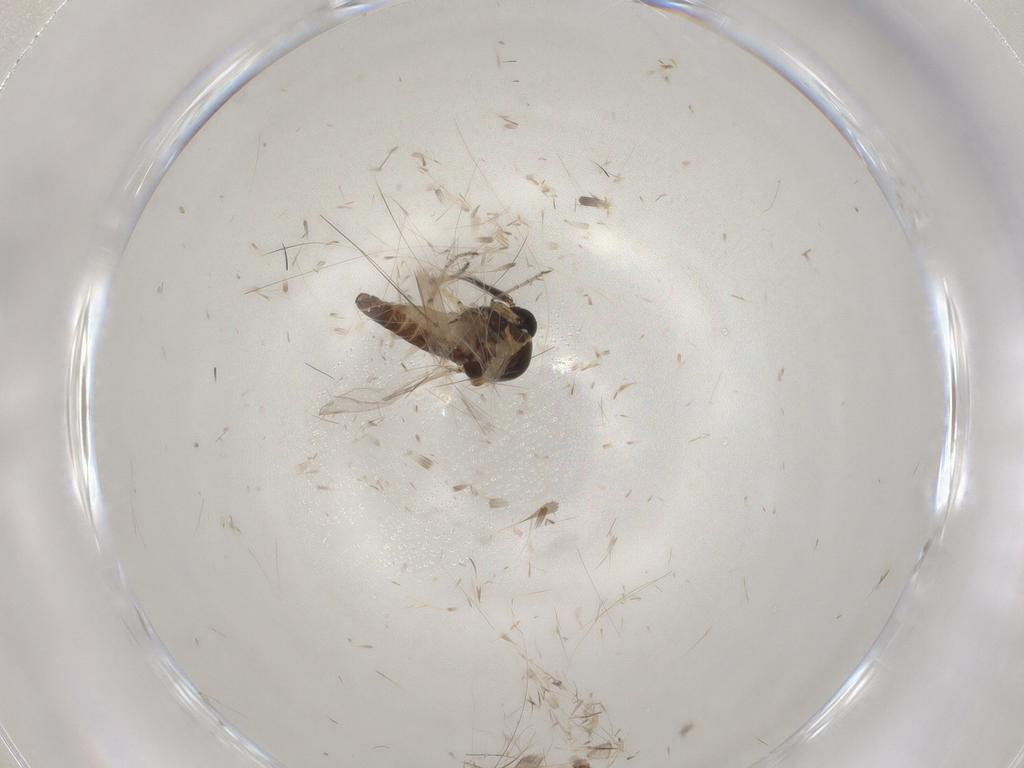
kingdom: Animalia
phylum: Arthropoda
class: Insecta
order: Diptera
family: Ceratopogonidae
